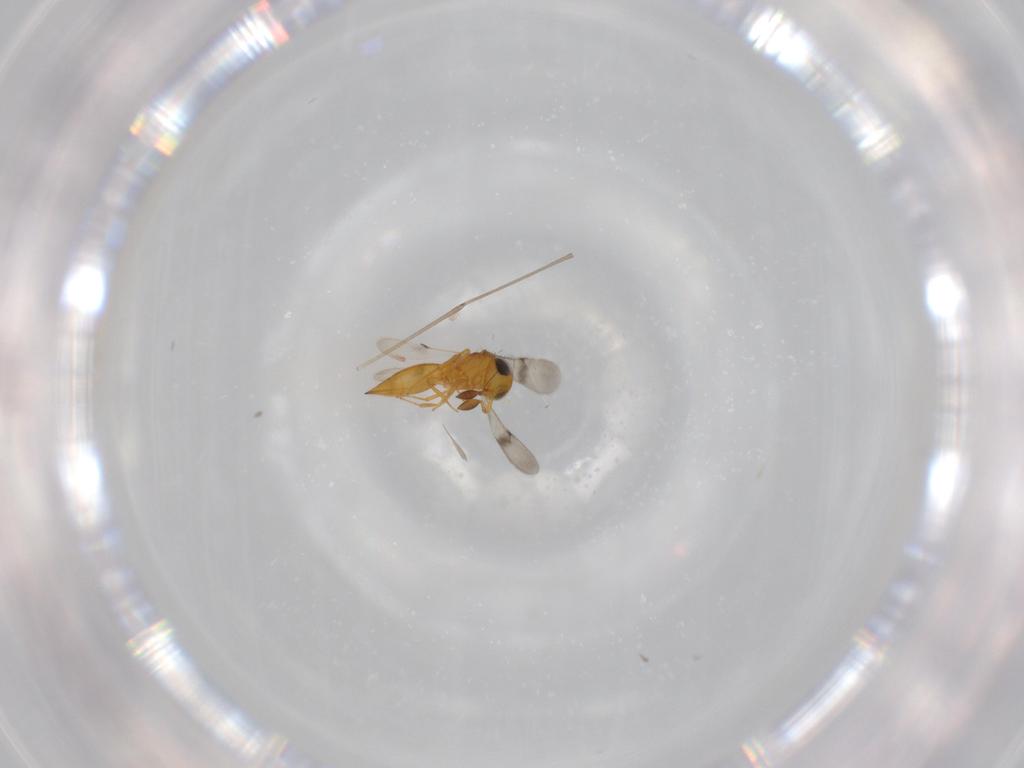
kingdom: Animalia
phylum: Arthropoda
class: Insecta
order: Hymenoptera
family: Scelionidae
